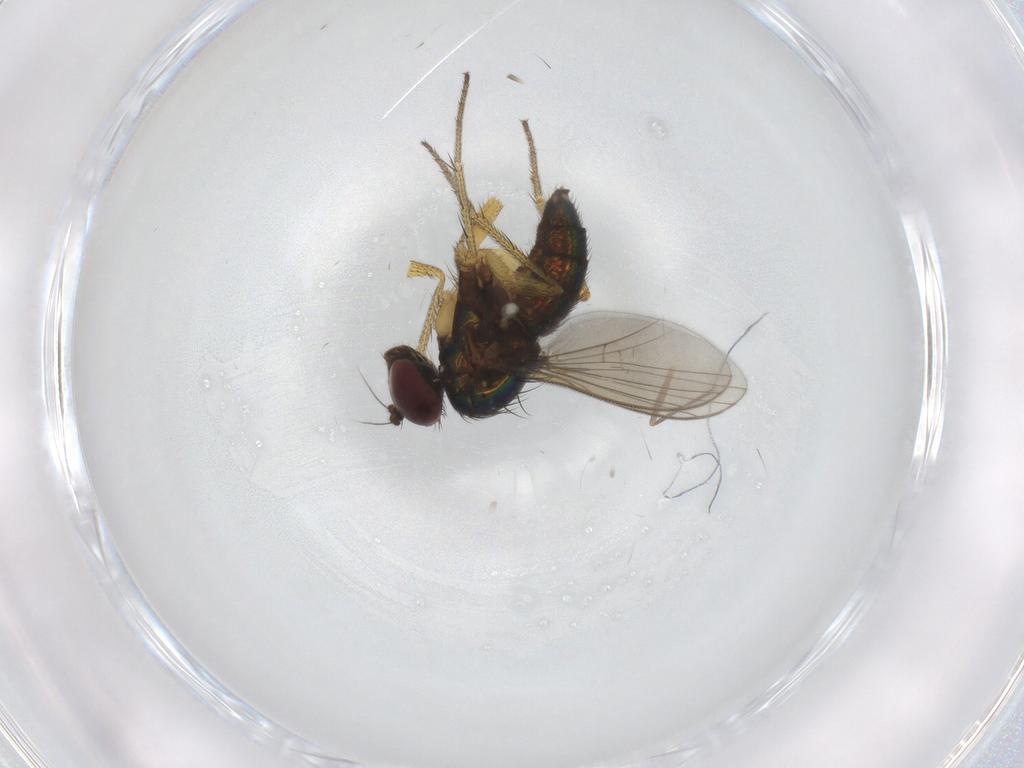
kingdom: Animalia
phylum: Arthropoda
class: Insecta
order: Diptera
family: Dolichopodidae
